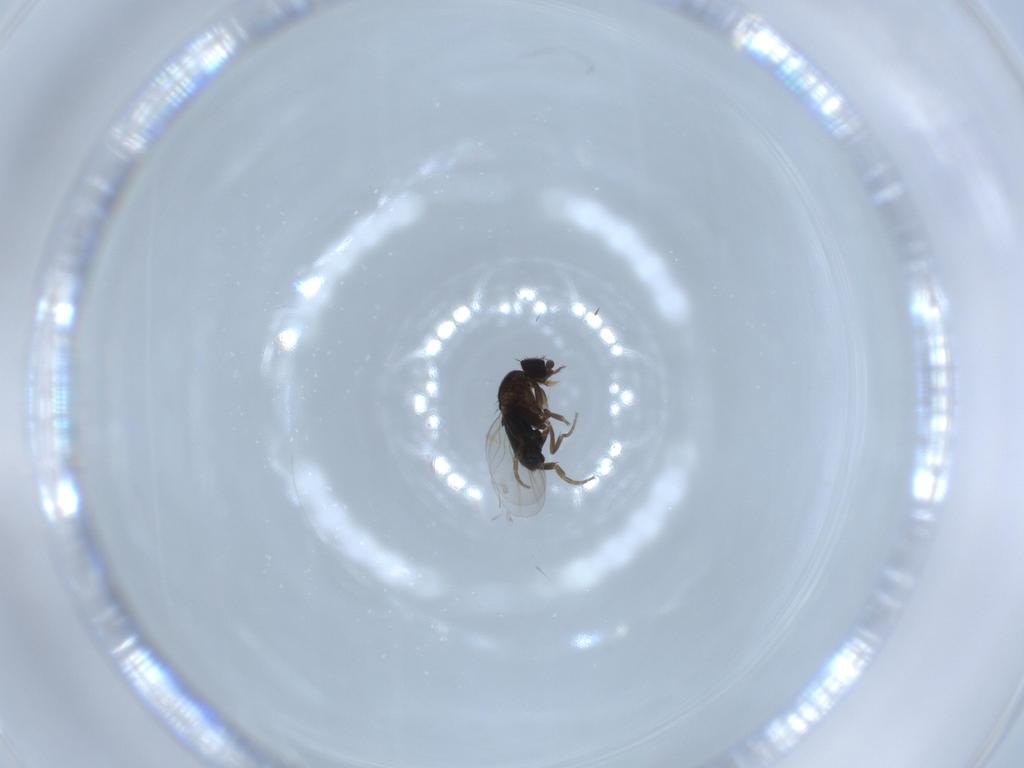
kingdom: Animalia
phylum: Arthropoda
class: Insecta
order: Diptera
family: Phoridae
